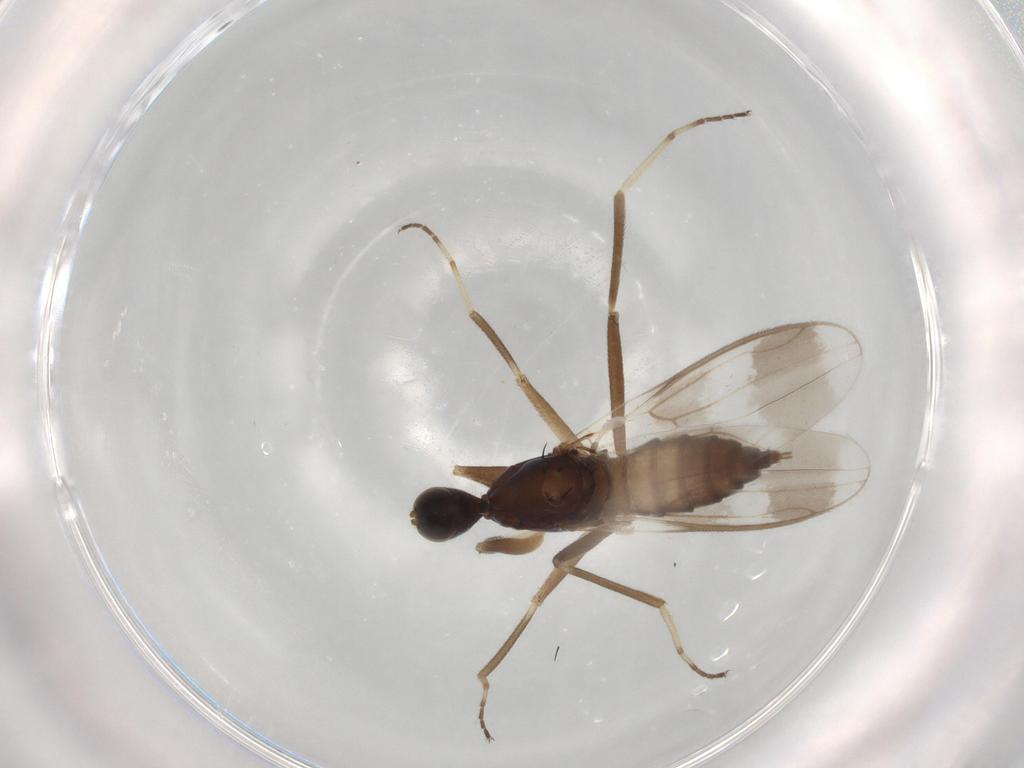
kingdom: Animalia
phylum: Arthropoda
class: Insecta
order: Diptera
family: Hybotidae
